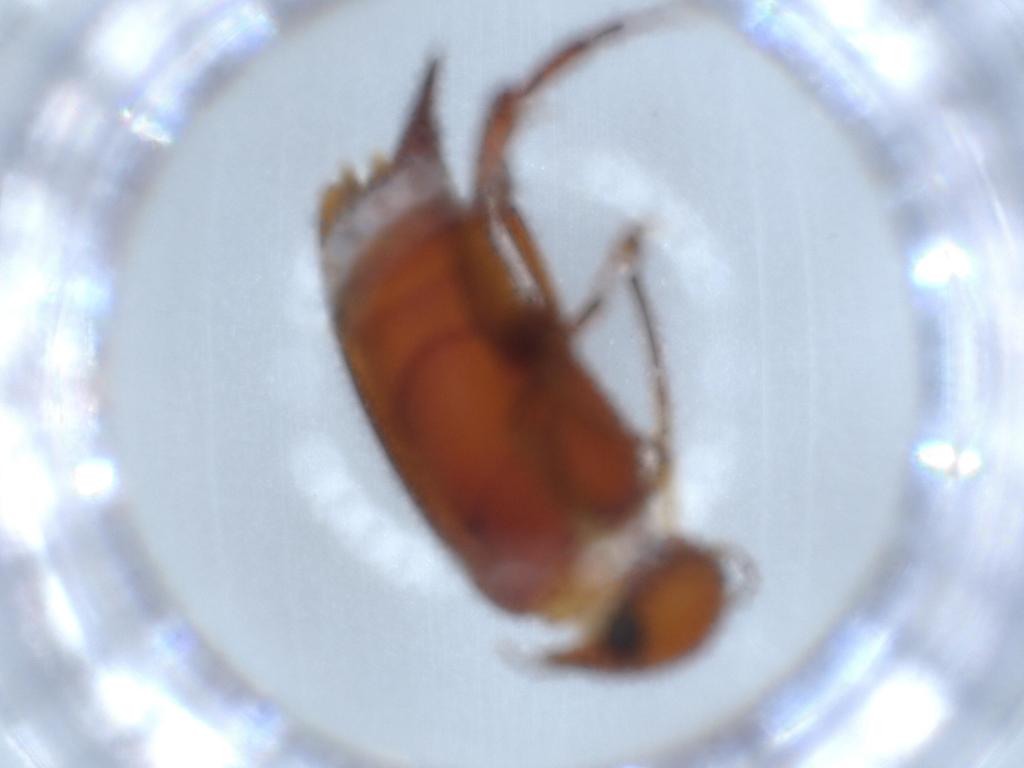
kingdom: Animalia
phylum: Arthropoda
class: Insecta
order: Coleoptera
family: Mordellidae
